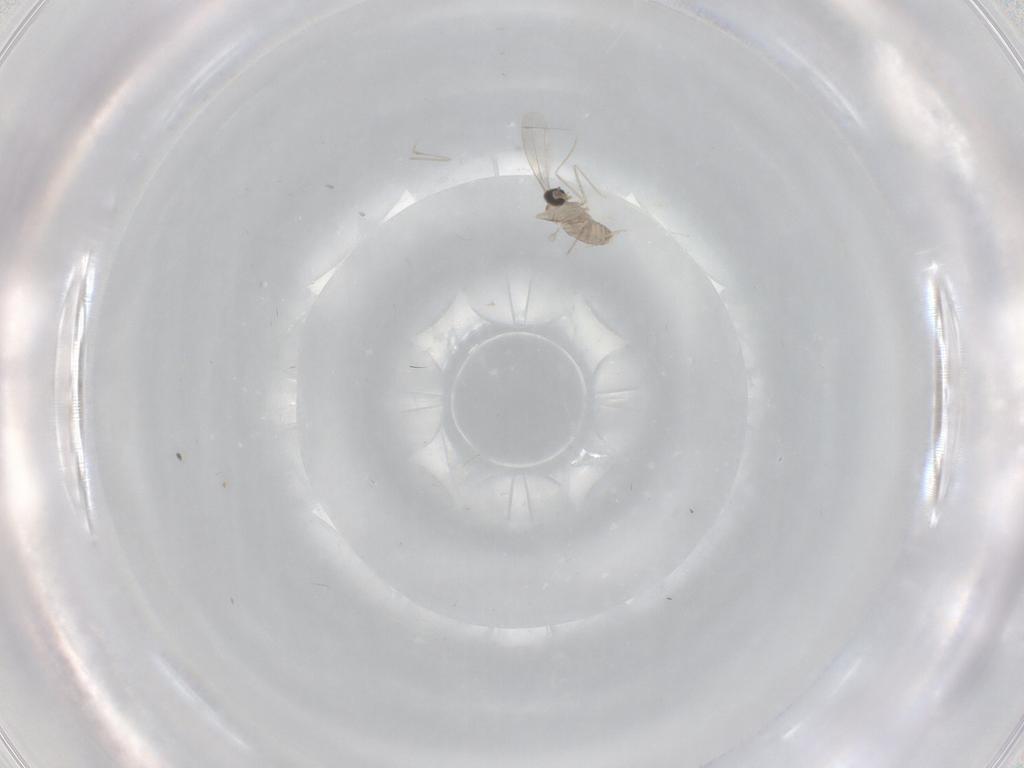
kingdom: Animalia
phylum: Arthropoda
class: Insecta
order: Diptera
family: Cecidomyiidae
